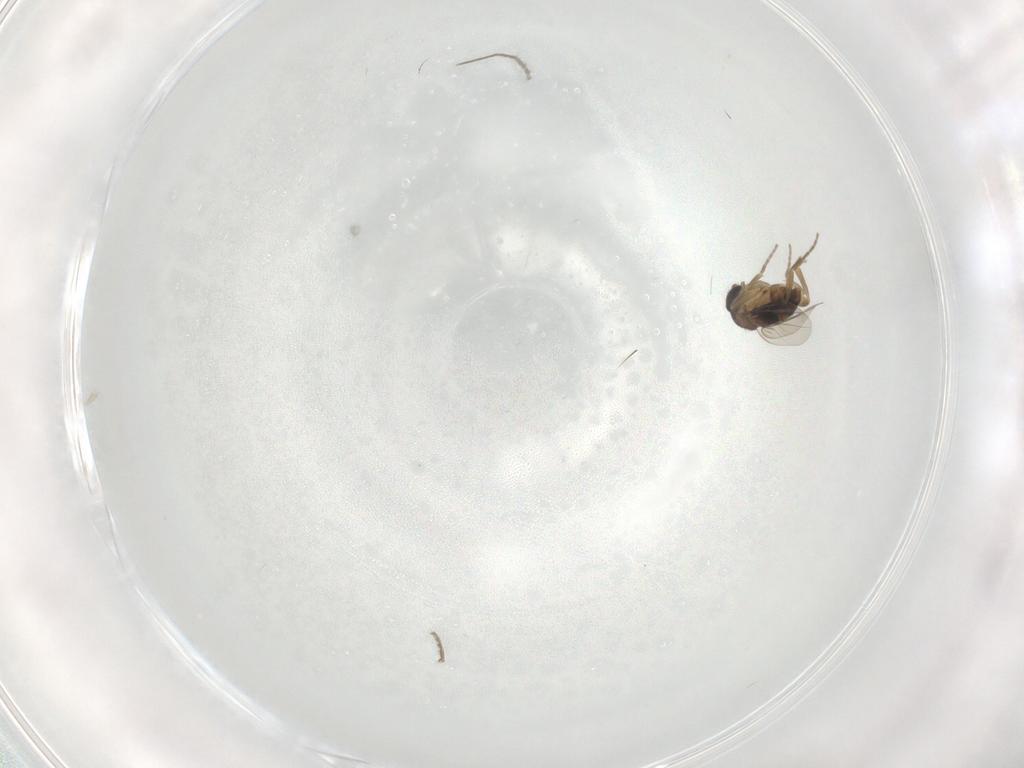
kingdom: Animalia
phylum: Arthropoda
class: Insecta
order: Diptera
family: Phoridae
